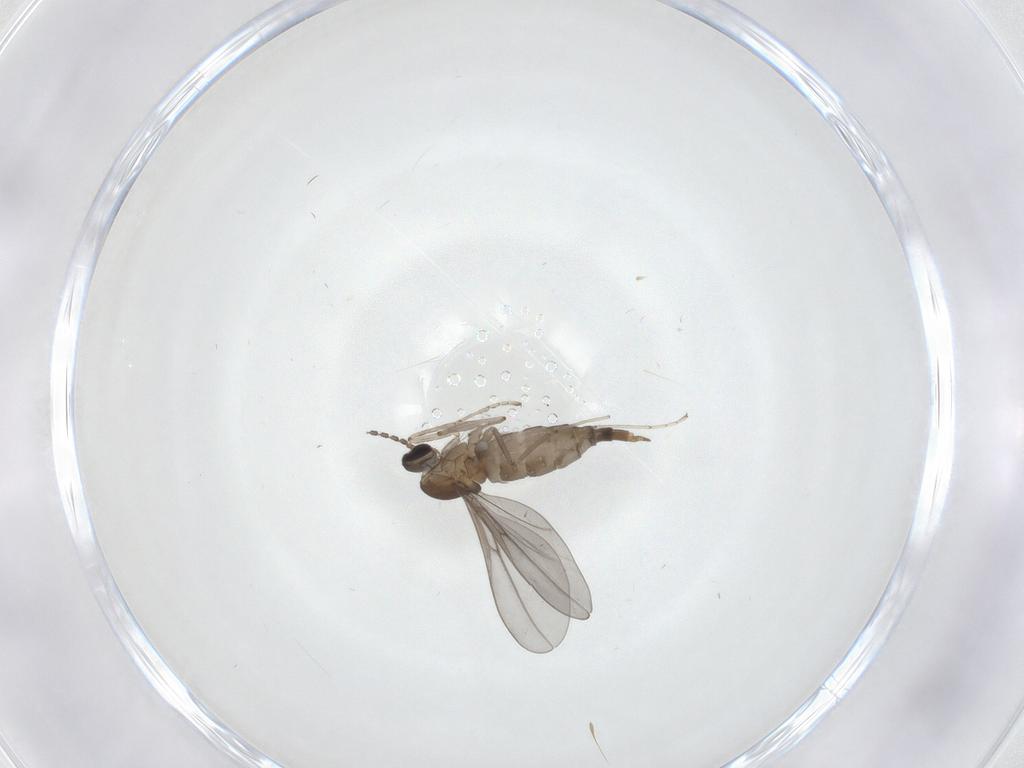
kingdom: Animalia
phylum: Arthropoda
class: Insecta
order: Diptera
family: Cecidomyiidae
